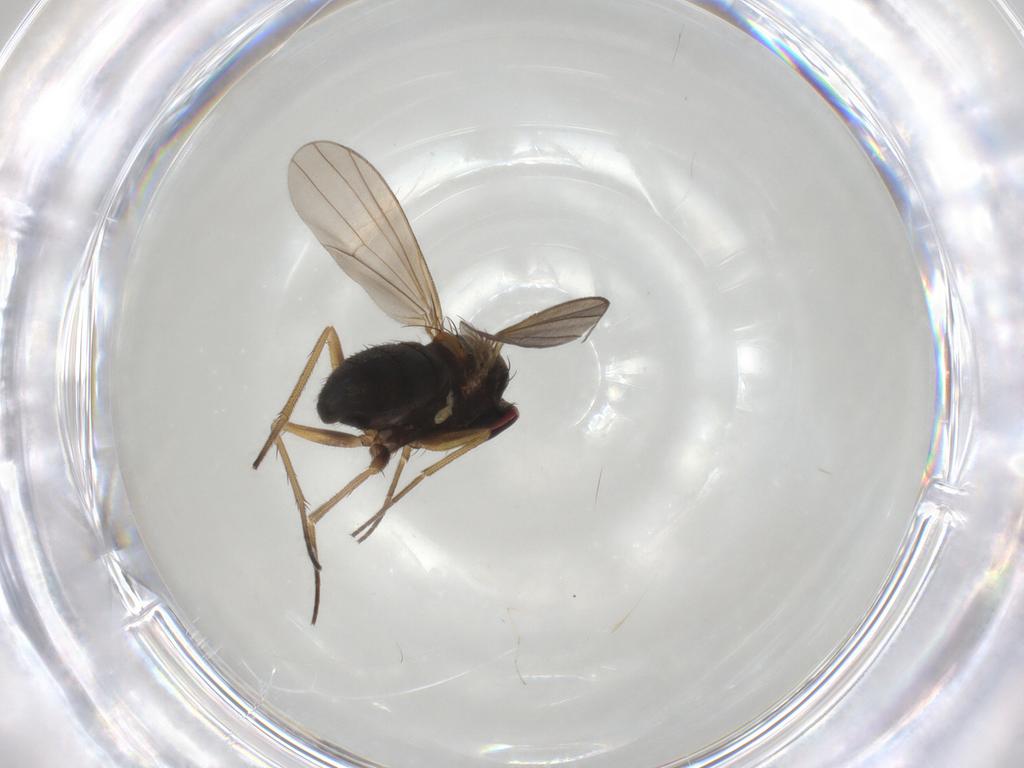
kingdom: Animalia
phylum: Arthropoda
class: Insecta
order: Diptera
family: Dolichopodidae
